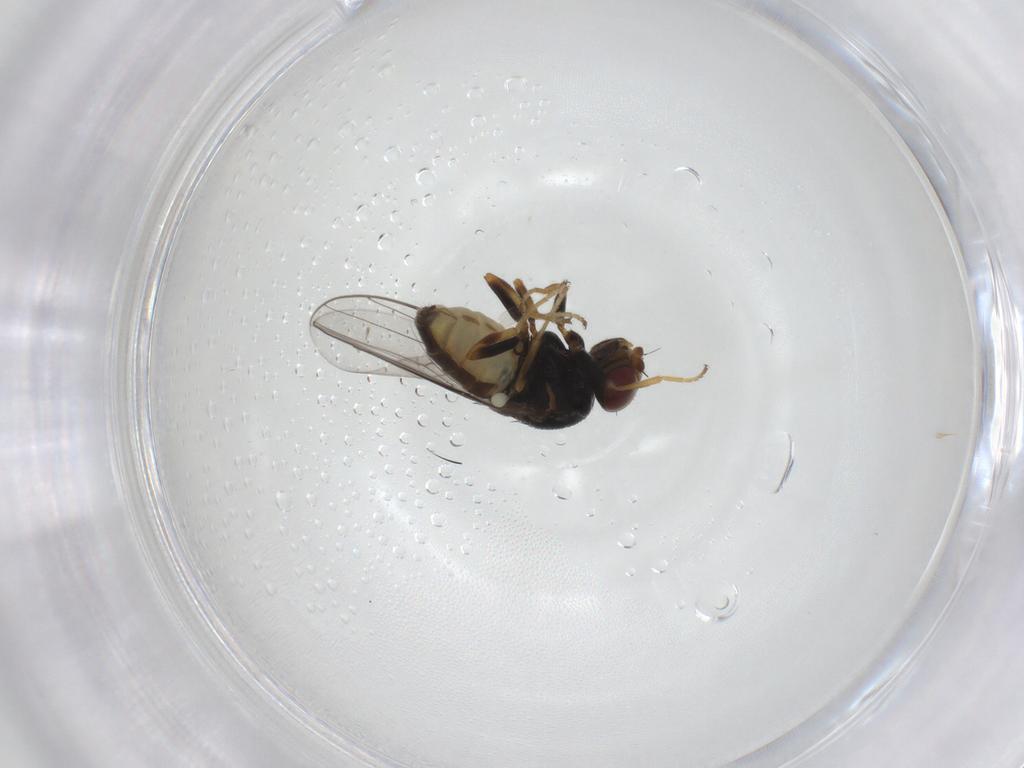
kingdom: Animalia
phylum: Arthropoda
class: Insecta
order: Diptera
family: Chloropidae
